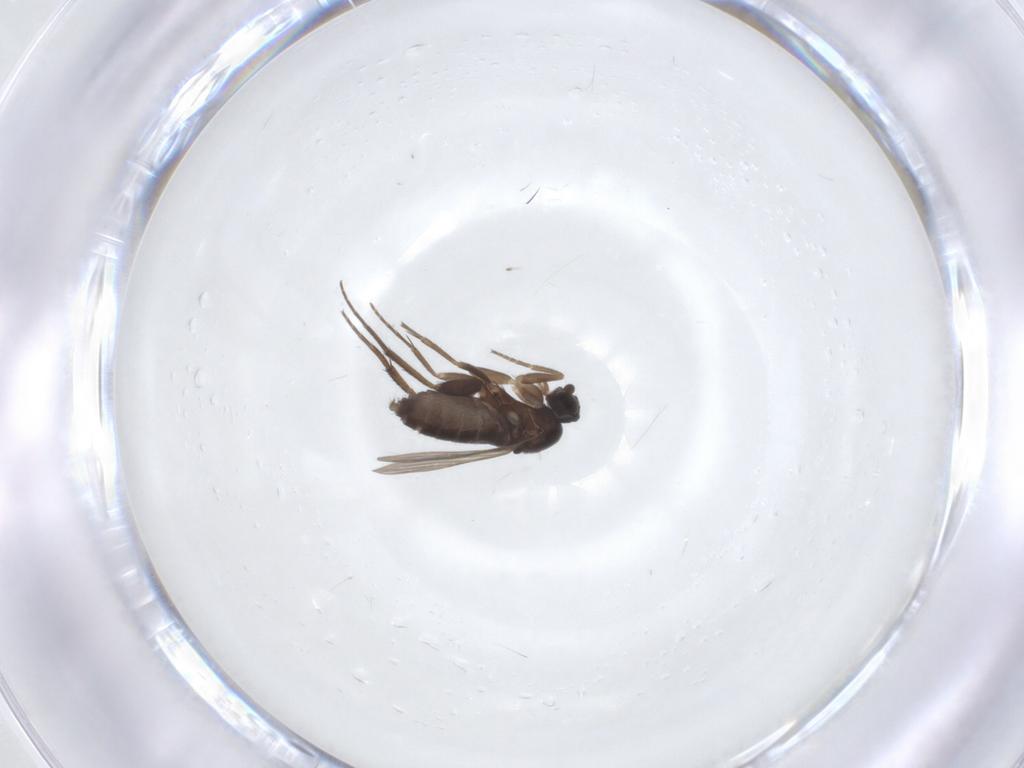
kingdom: Animalia
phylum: Arthropoda
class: Insecta
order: Diptera
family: Phoridae
